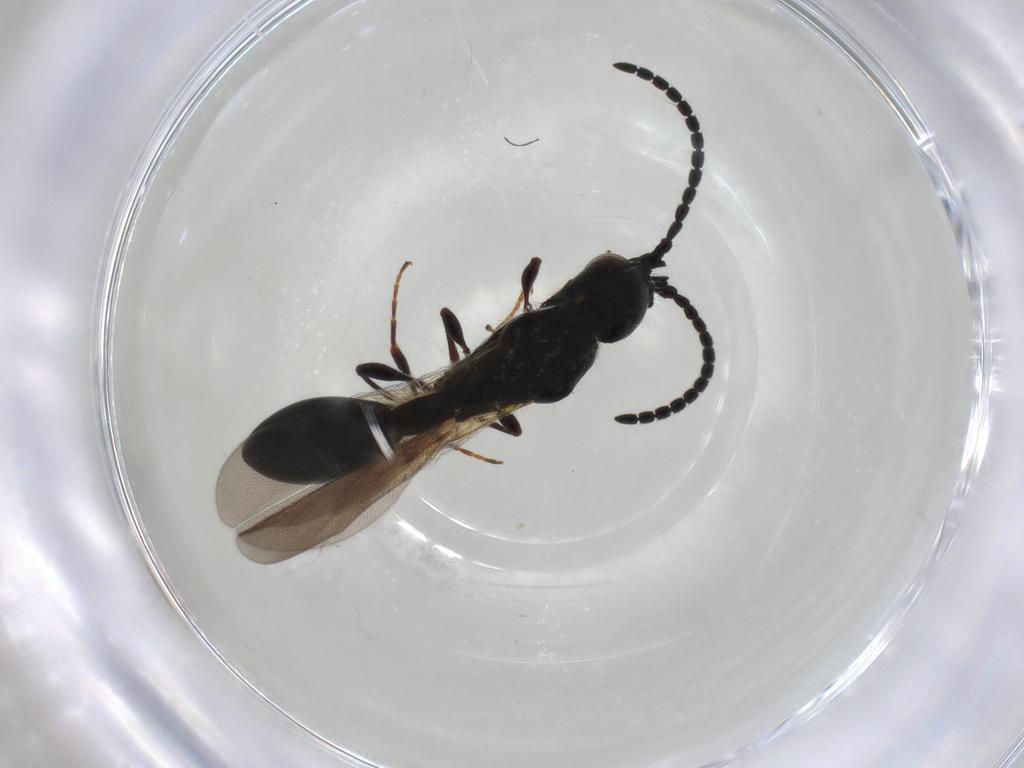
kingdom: Animalia
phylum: Arthropoda
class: Insecta
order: Hymenoptera
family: Diapriidae
